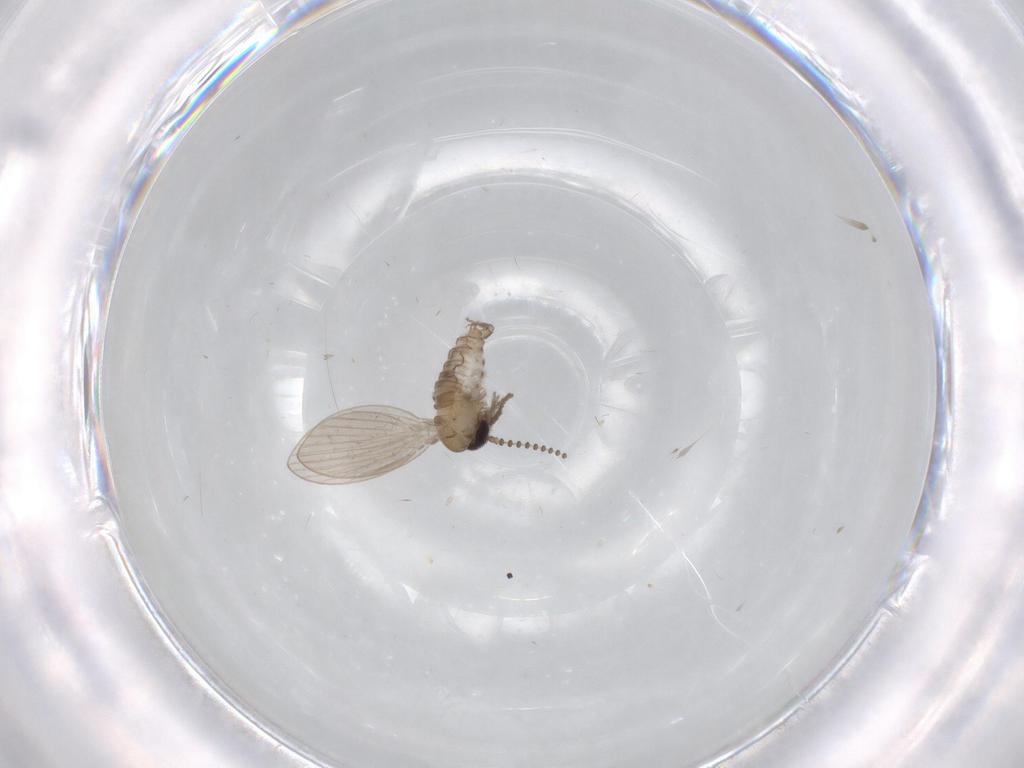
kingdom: Animalia
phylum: Arthropoda
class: Insecta
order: Diptera
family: Psychodidae
